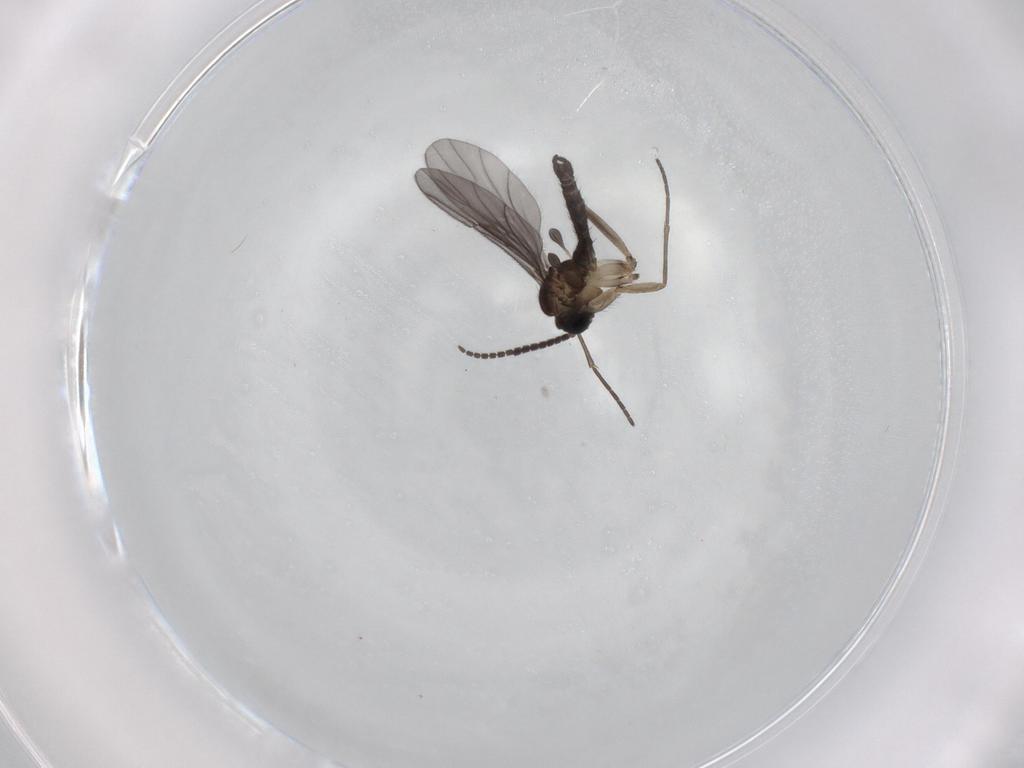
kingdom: Animalia
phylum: Arthropoda
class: Insecta
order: Diptera
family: Sciaridae
